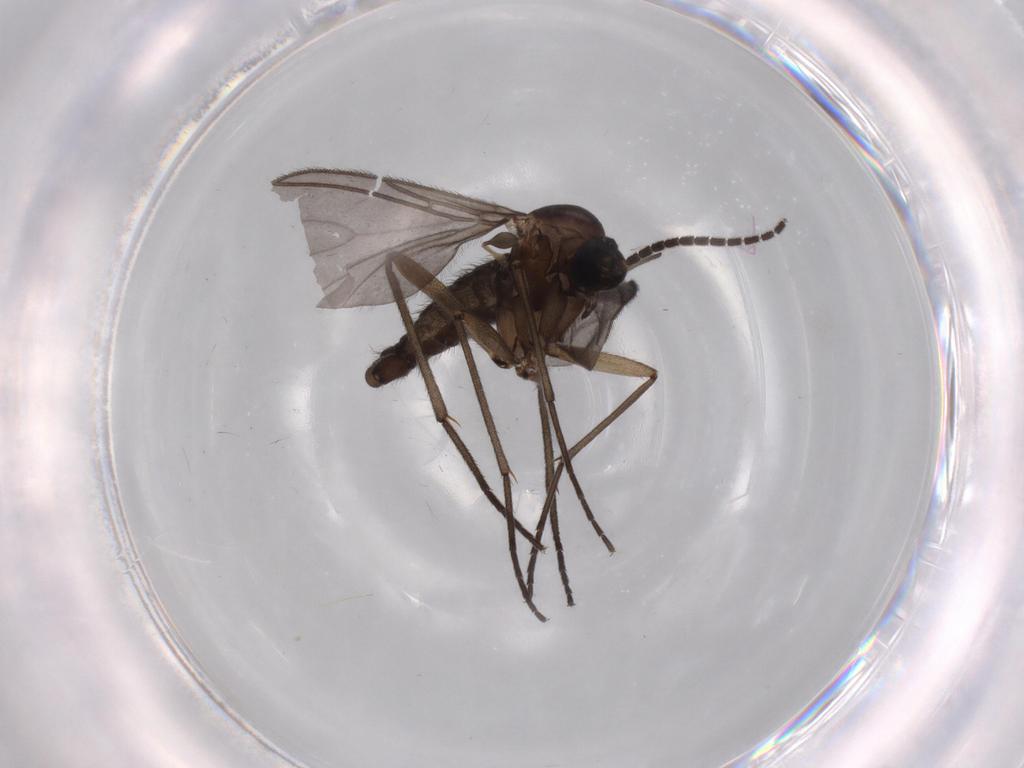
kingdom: Animalia
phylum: Arthropoda
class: Insecta
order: Diptera
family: Sciaridae
